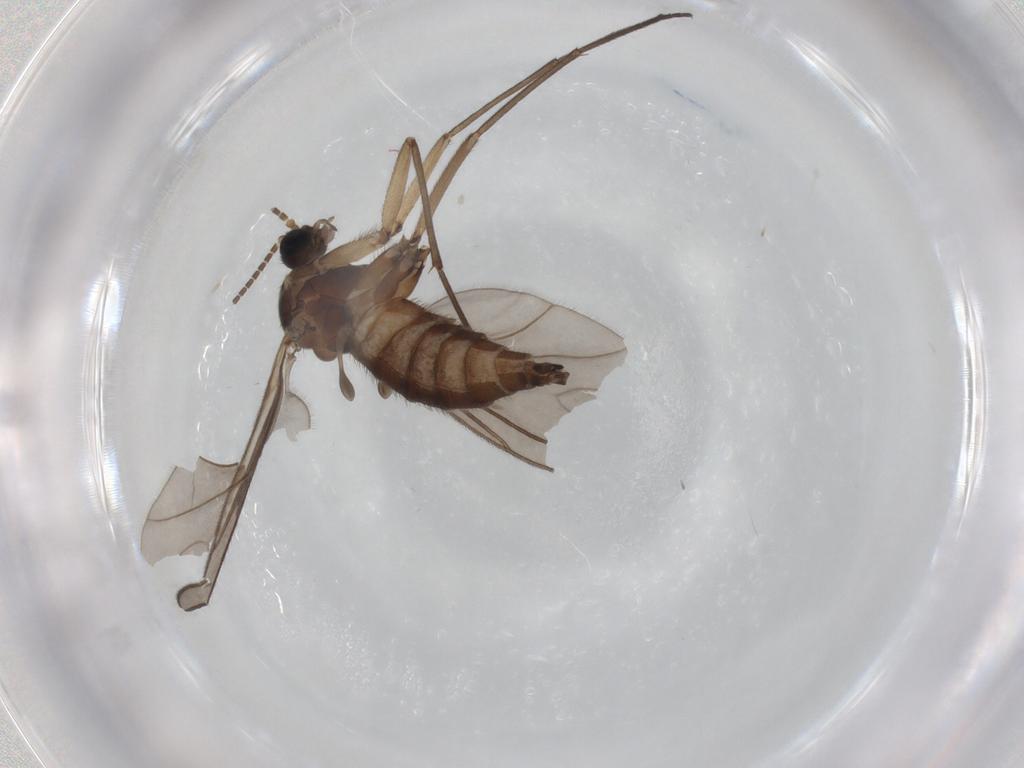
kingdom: Animalia
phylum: Arthropoda
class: Insecta
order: Diptera
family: Sciaridae
